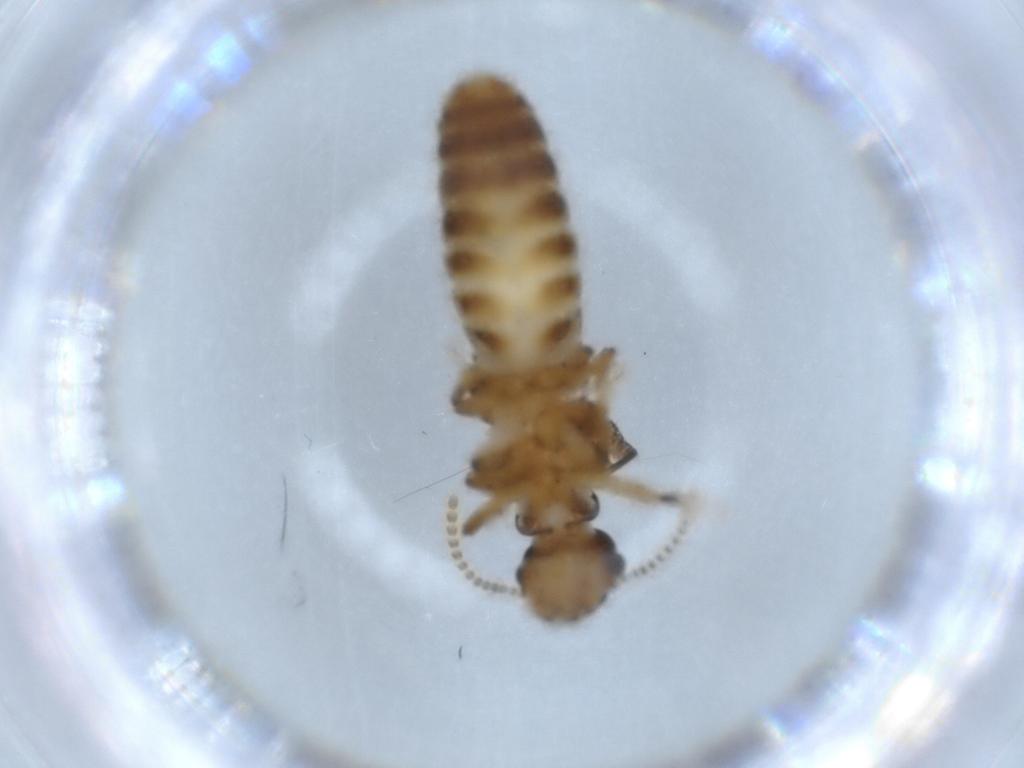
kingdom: Animalia
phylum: Arthropoda
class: Insecta
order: Blattodea
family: Termitidae
